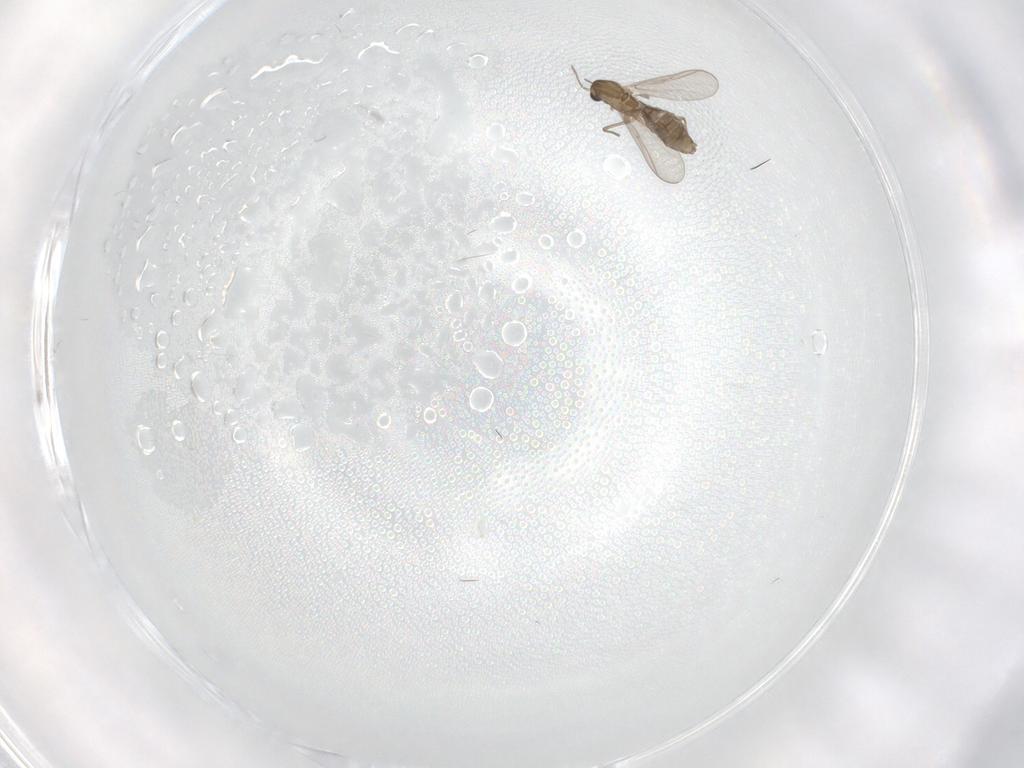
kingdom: Animalia
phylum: Arthropoda
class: Insecta
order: Diptera
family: Chironomidae
